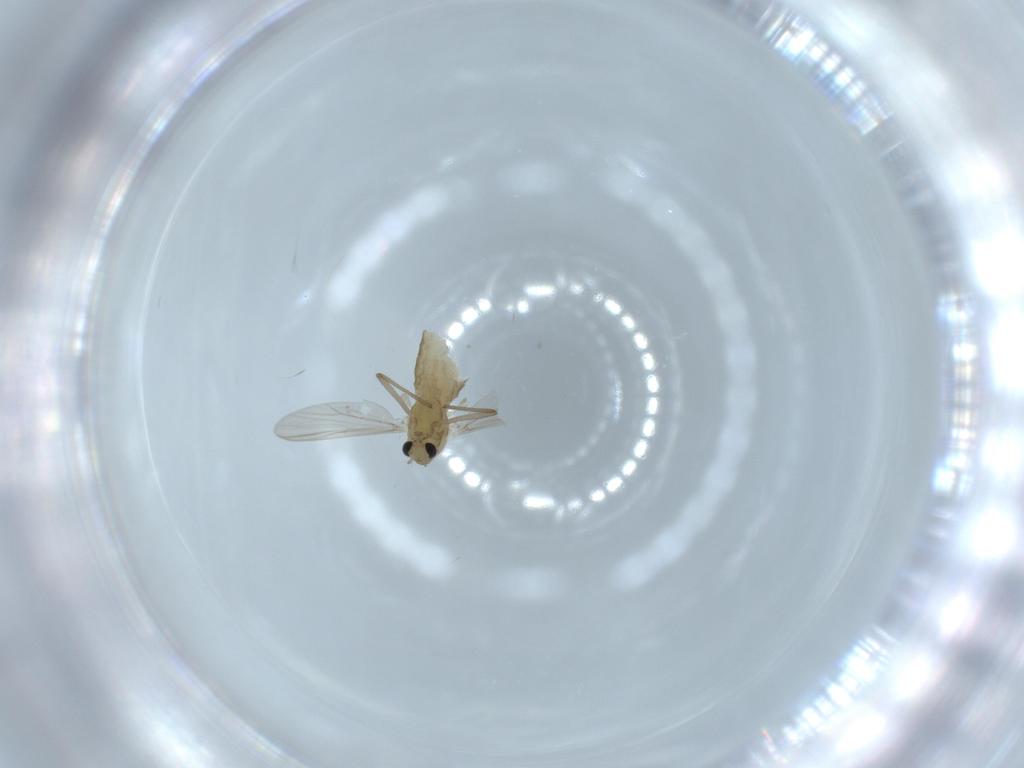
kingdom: Animalia
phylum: Arthropoda
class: Insecta
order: Diptera
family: Chironomidae
